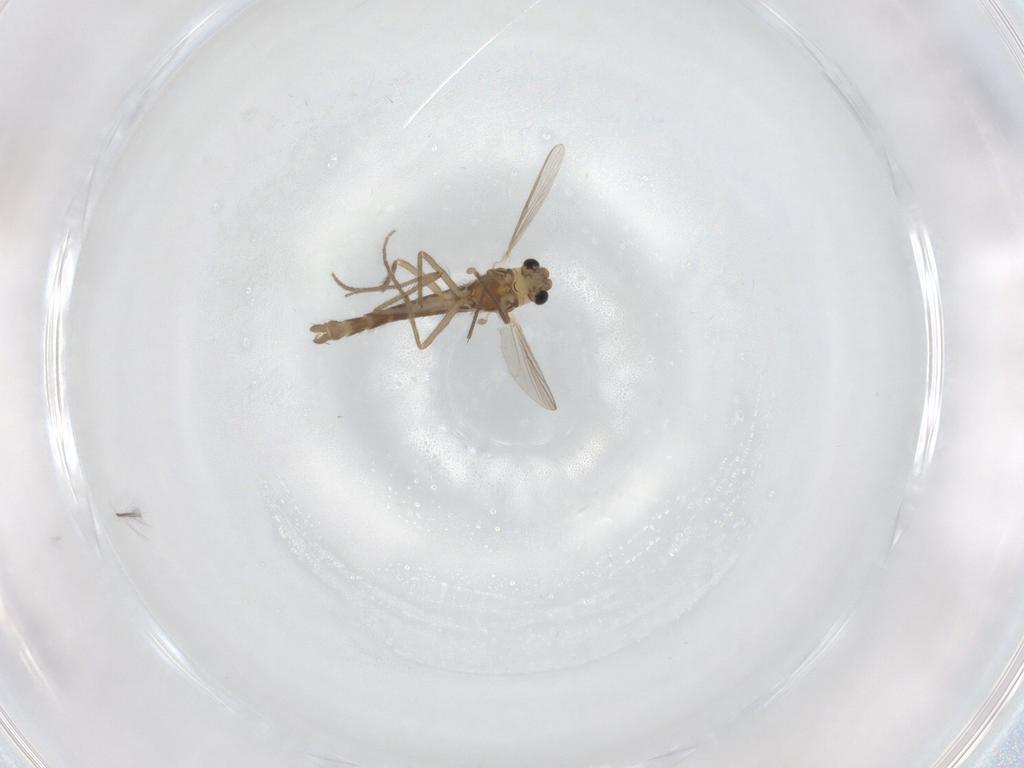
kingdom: Animalia
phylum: Arthropoda
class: Insecta
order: Diptera
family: Chironomidae
